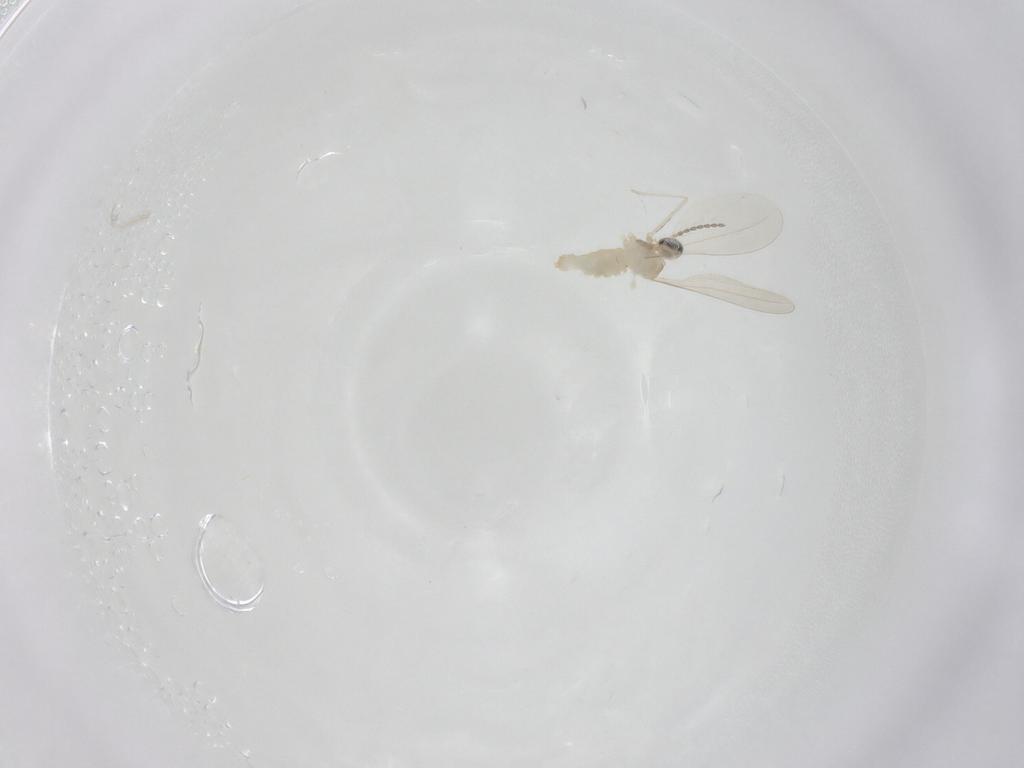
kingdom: Animalia
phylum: Arthropoda
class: Insecta
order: Diptera
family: Cecidomyiidae
